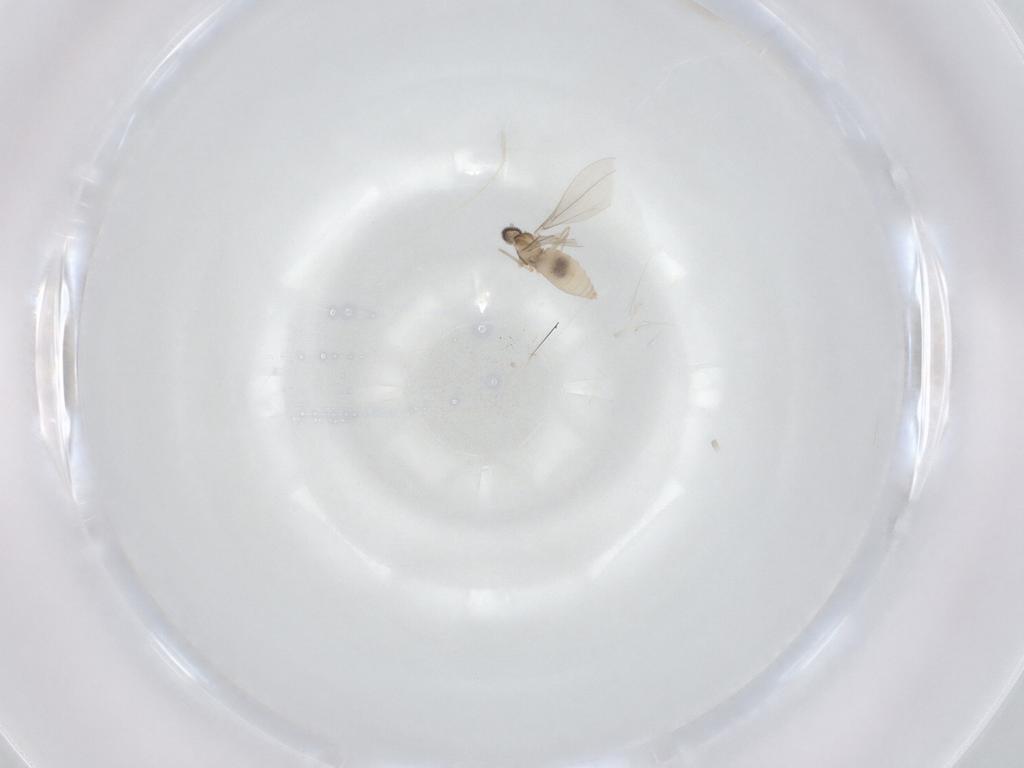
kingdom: Animalia
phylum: Arthropoda
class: Insecta
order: Diptera
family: Cecidomyiidae
